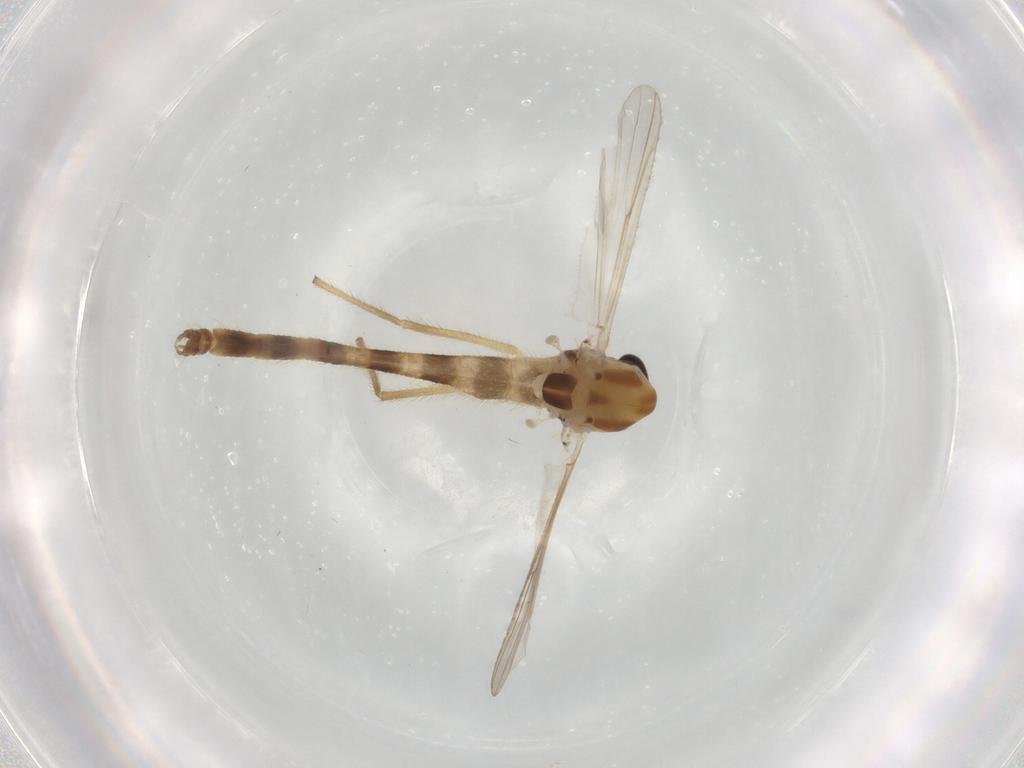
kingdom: Animalia
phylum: Arthropoda
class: Insecta
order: Diptera
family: Chironomidae
